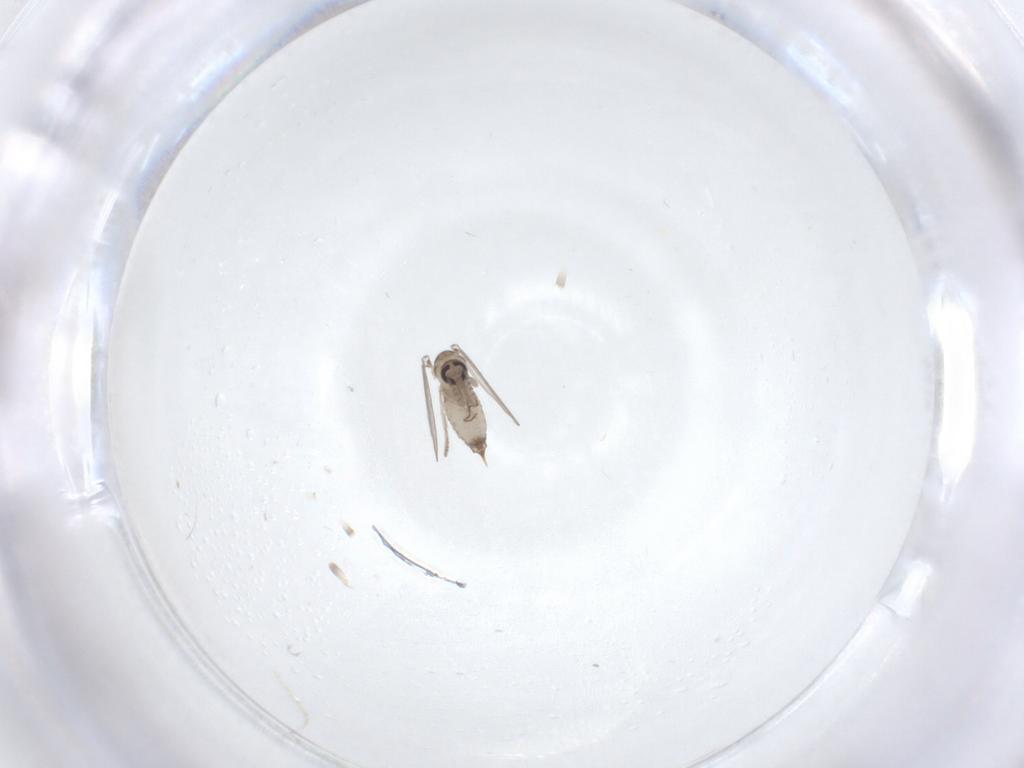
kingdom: Animalia
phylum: Arthropoda
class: Insecta
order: Diptera
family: Psychodidae
